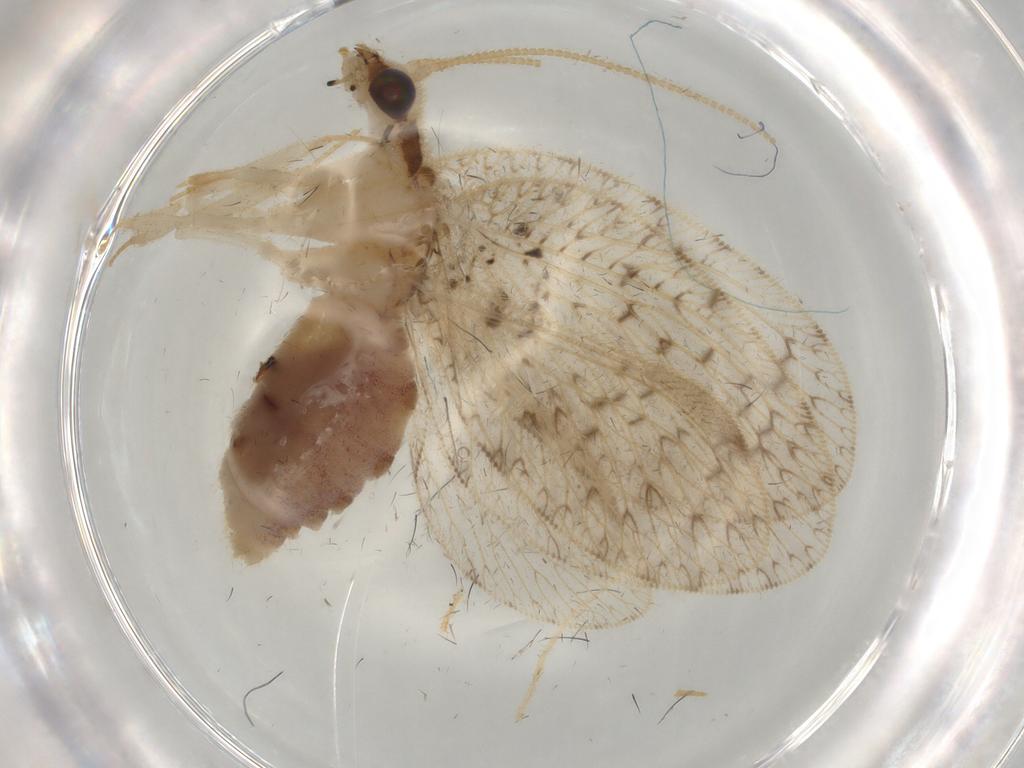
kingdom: Animalia
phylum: Arthropoda
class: Insecta
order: Neuroptera
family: Hemerobiidae
